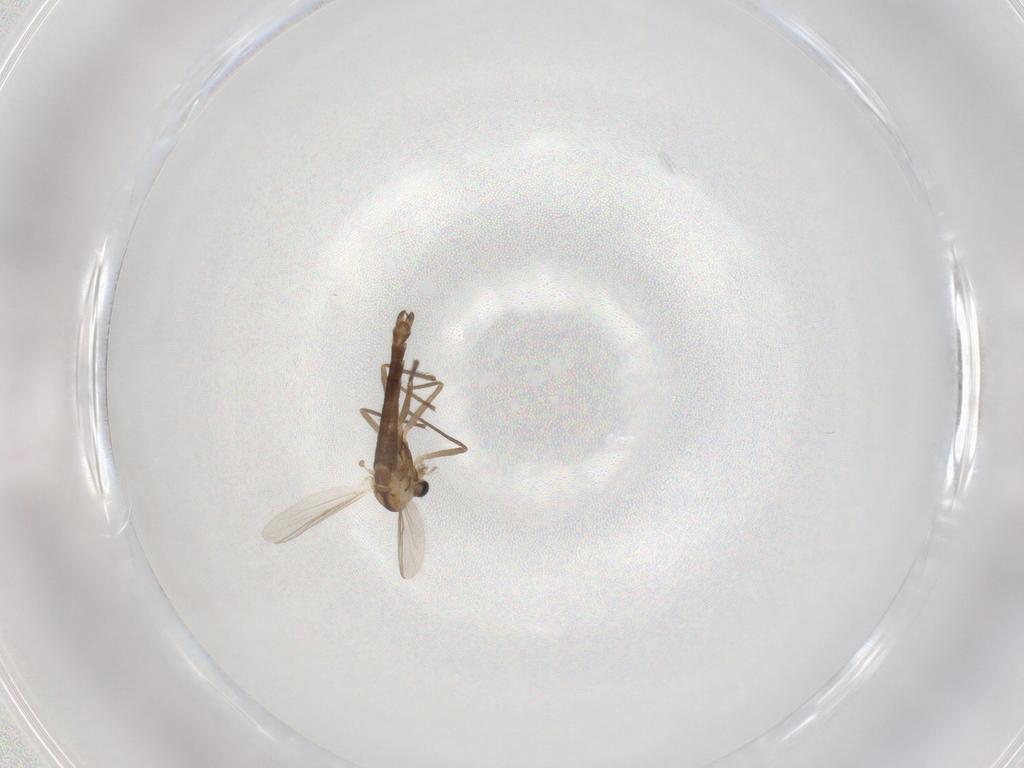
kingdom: Animalia
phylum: Arthropoda
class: Insecta
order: Diptera
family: Chironomidae
